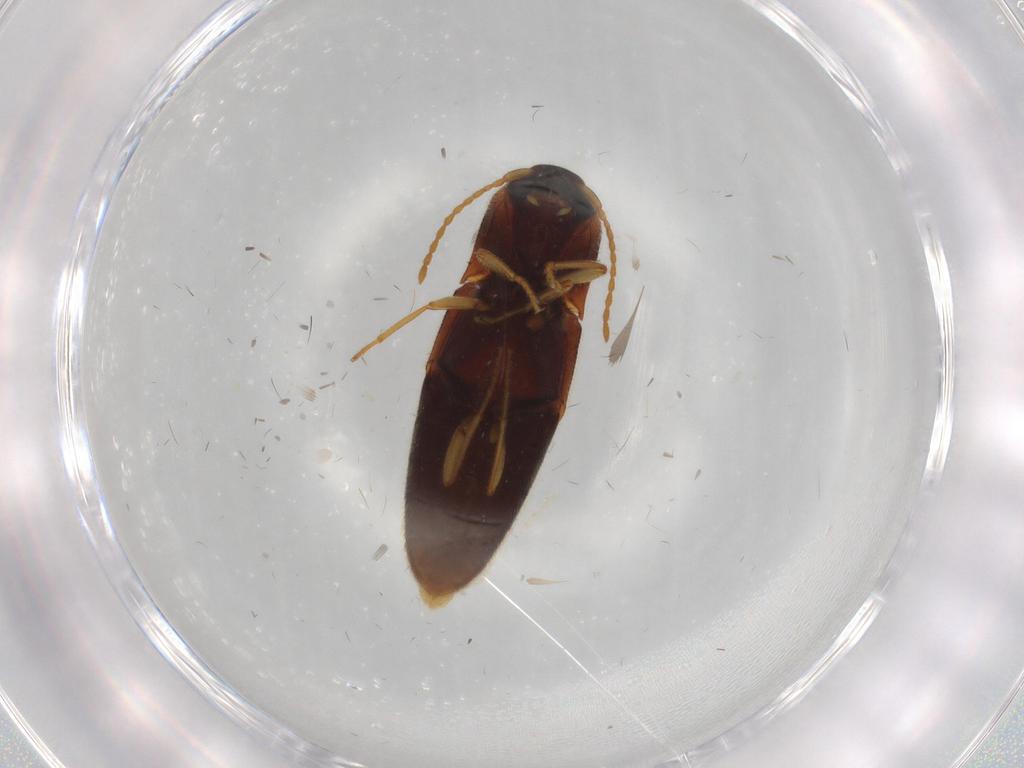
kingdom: Animalia
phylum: Arthropoda
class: Insecta
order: Coleoptera
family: Elateridae
